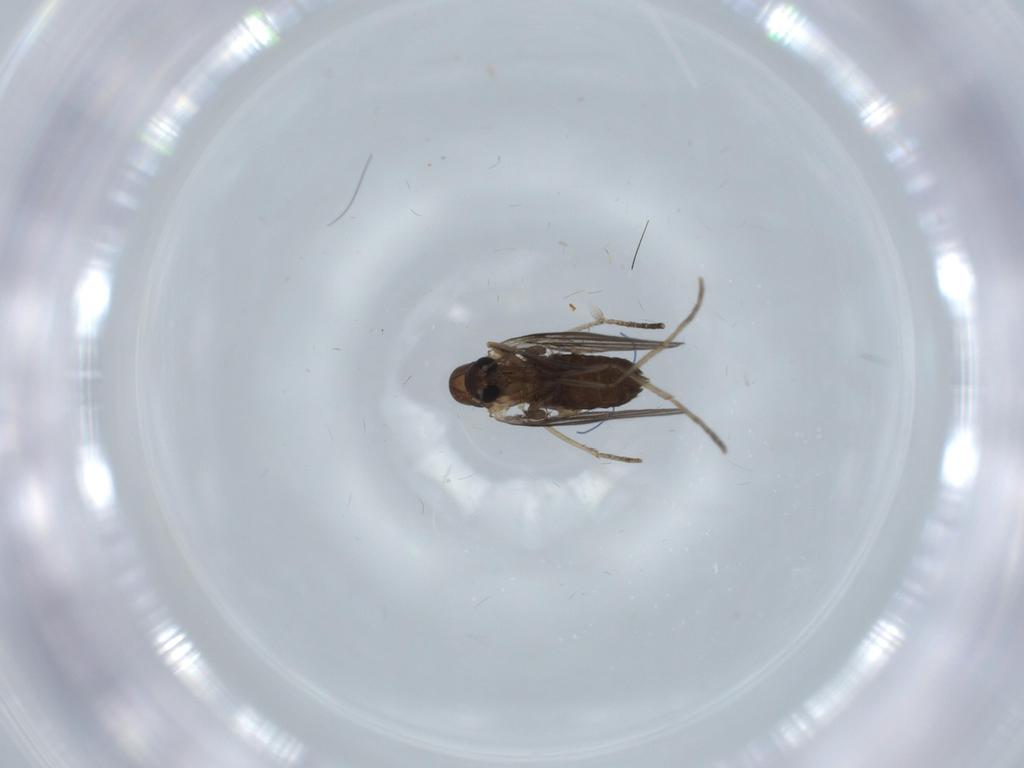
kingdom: Animalia
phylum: Arthropoda
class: Insecta
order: Diptera
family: Psychodidae
